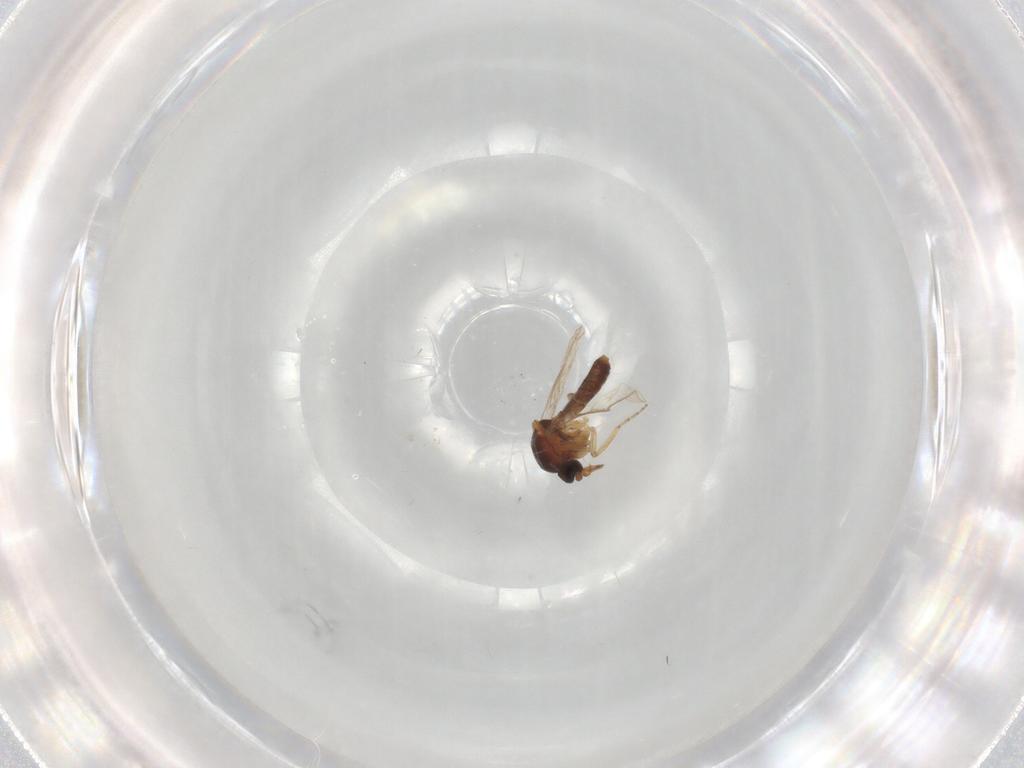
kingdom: Animalia
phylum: Arthropoda
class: Insecta
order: Diptera
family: Ceratopogonidae
